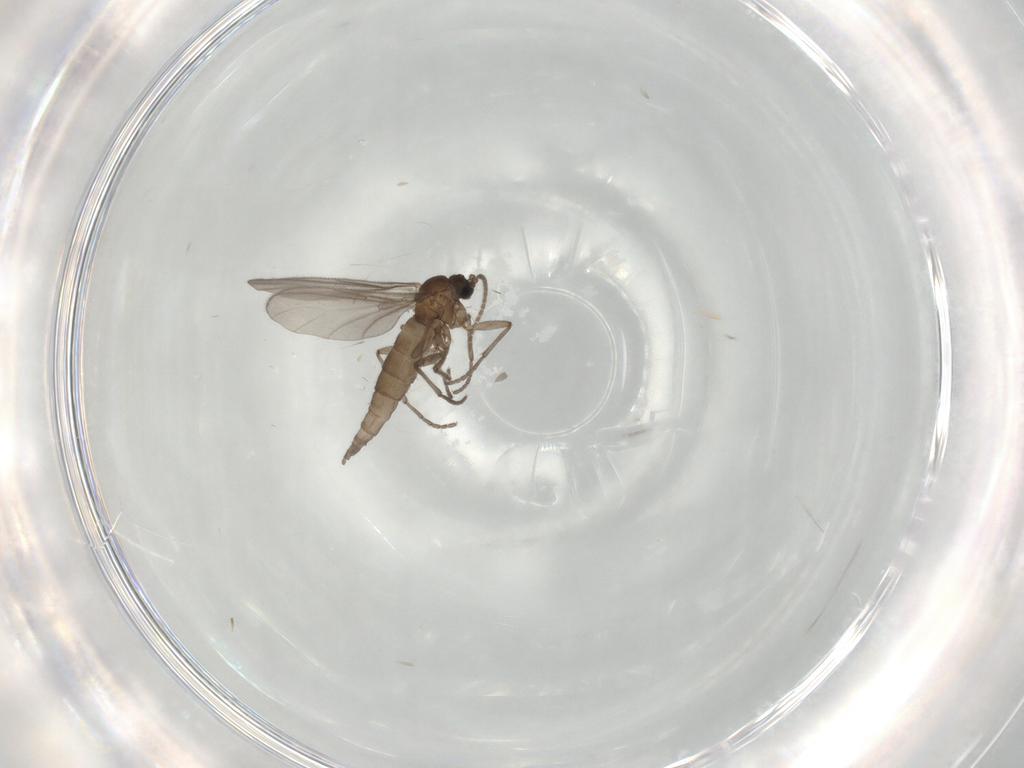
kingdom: Animalia
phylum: Arthropoda
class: Insecta
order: Diptera
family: Sciaridae
